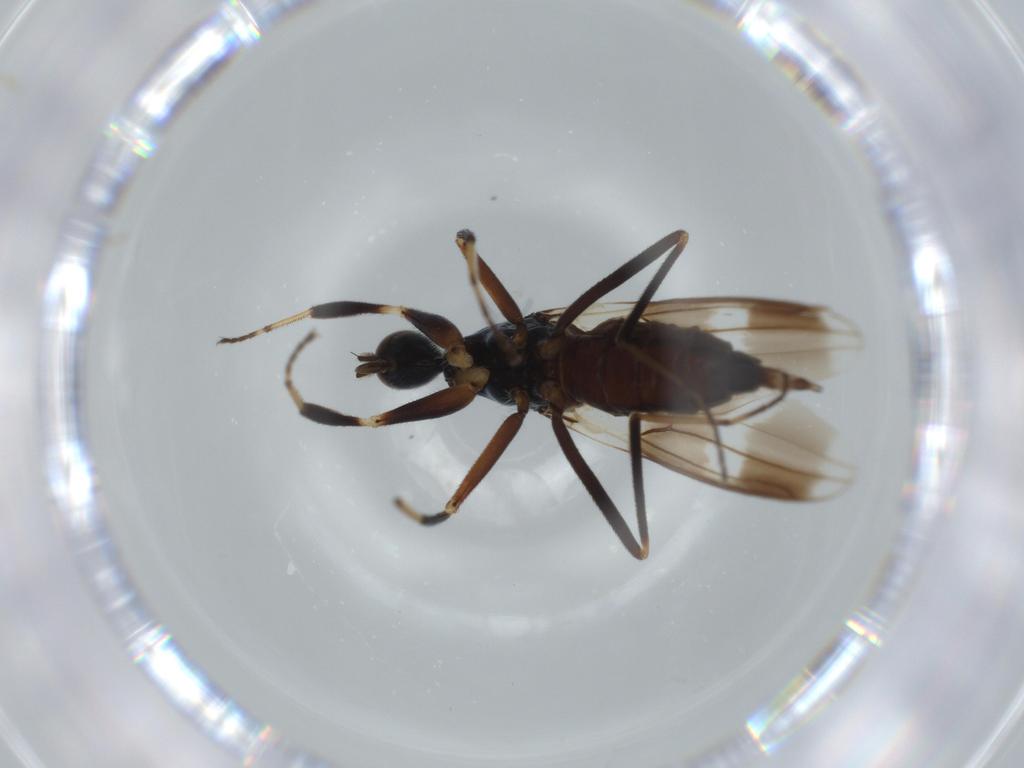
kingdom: Animalia
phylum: Arthropoda
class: Insecta
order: Diptera
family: Hybotidae
